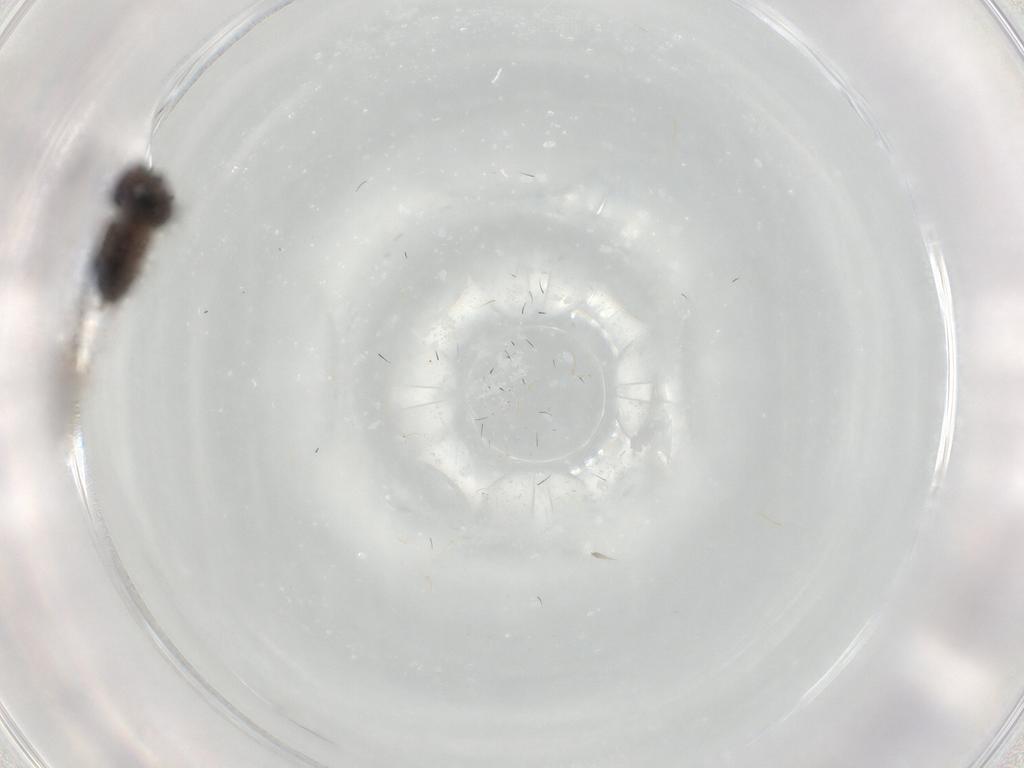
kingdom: Animalia
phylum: Arthropoda
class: Insecta
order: Diptera
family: Dolichopodidae
